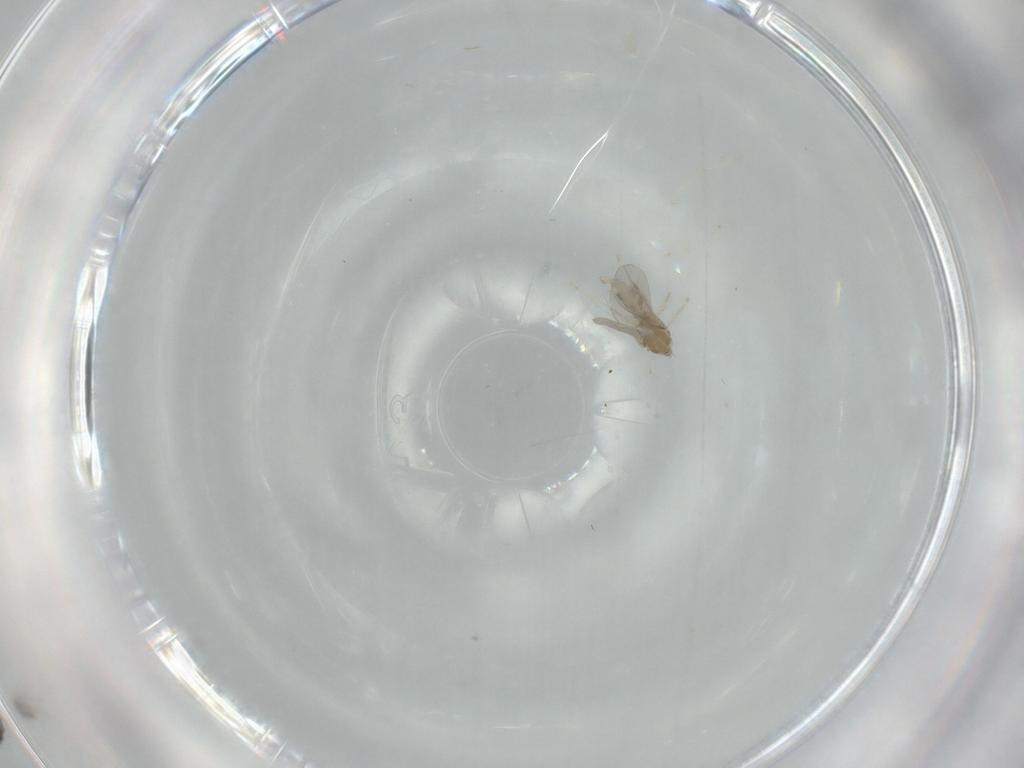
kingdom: Animalia
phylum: Arthropoda
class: Insecta
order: Diptera
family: Cecidomyiidae
